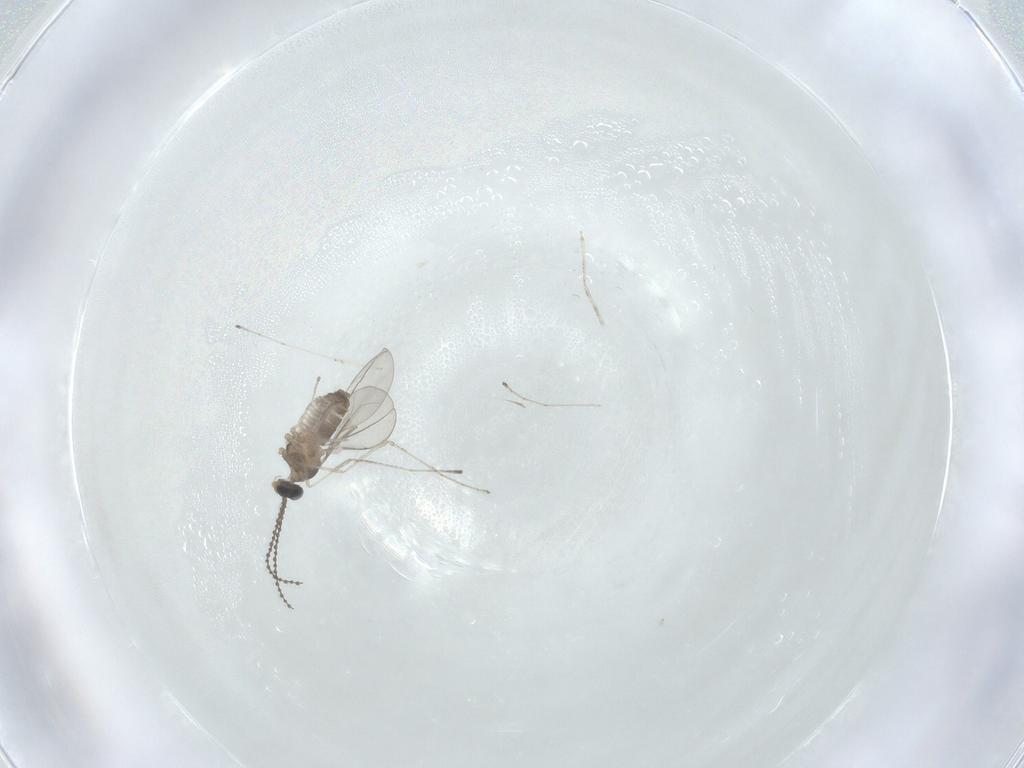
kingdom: Animalia
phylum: Arthropoda
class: Insecta
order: Diptera
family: Cecidomyiidae
